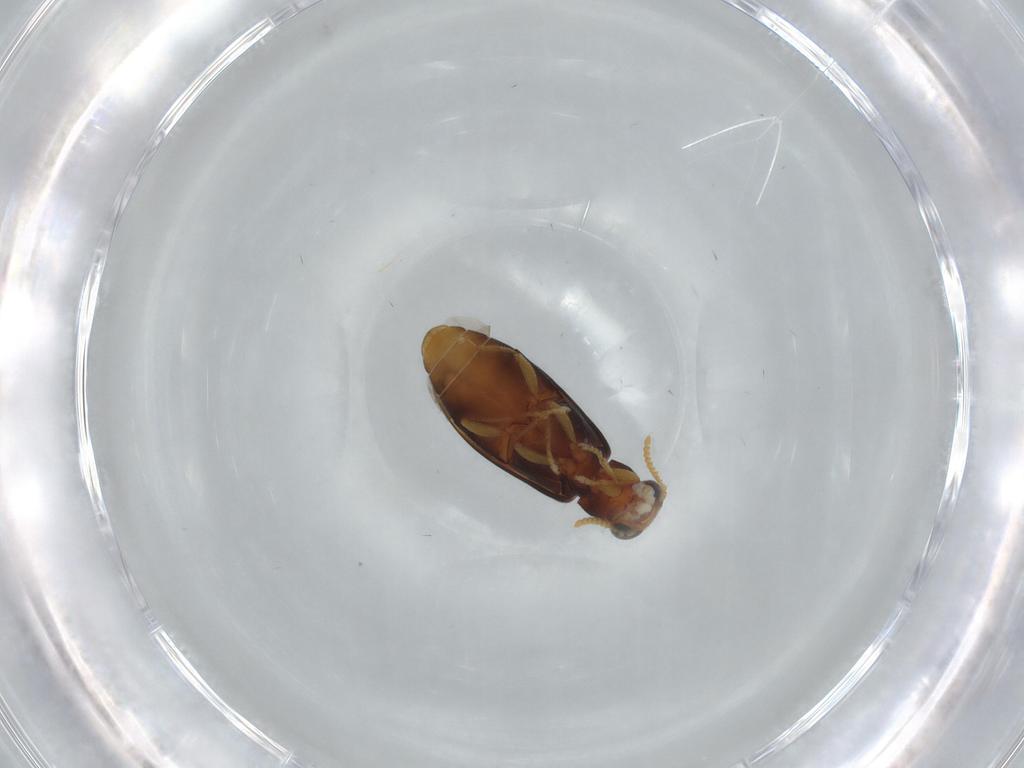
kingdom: Animalia
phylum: Arthropoda
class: Insecta
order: Coleoptera
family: Mycteridae
